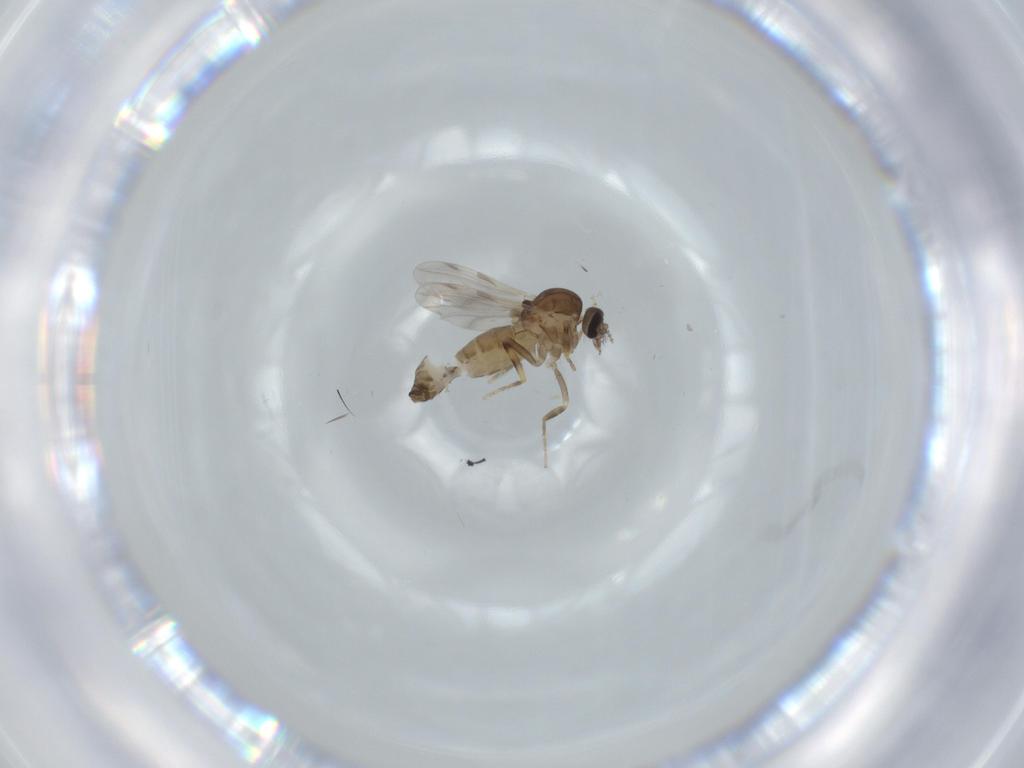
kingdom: Animalia
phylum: Arthropoda
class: Insecta
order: Diptera
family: Ceratopogonidae
